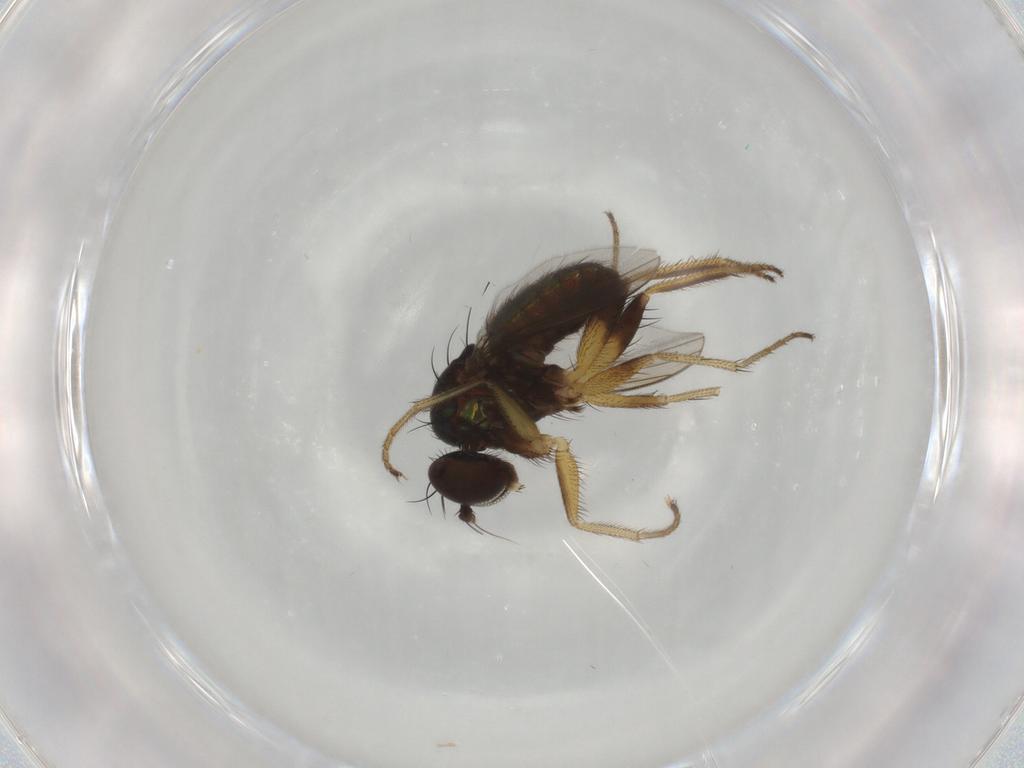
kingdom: Animalia
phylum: Arthropoda
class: Insecta
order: Diptera
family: Dolichopodidae
